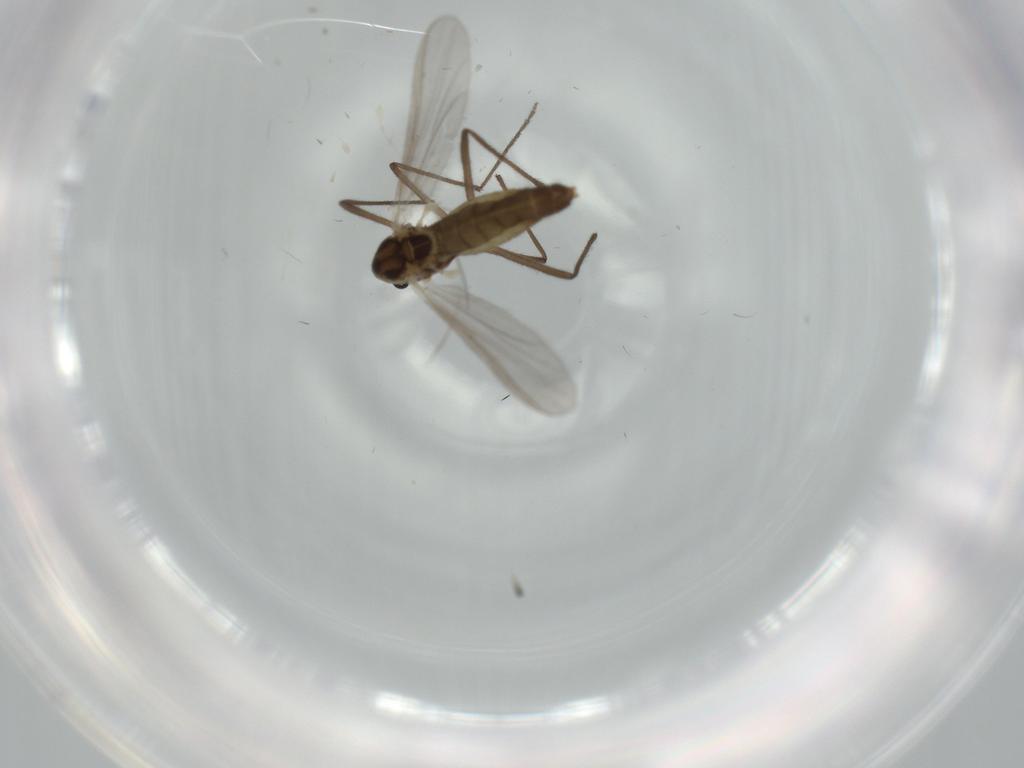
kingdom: Animalia
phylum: Arthropoda
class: Insecta
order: Diptera
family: Chironomidae
